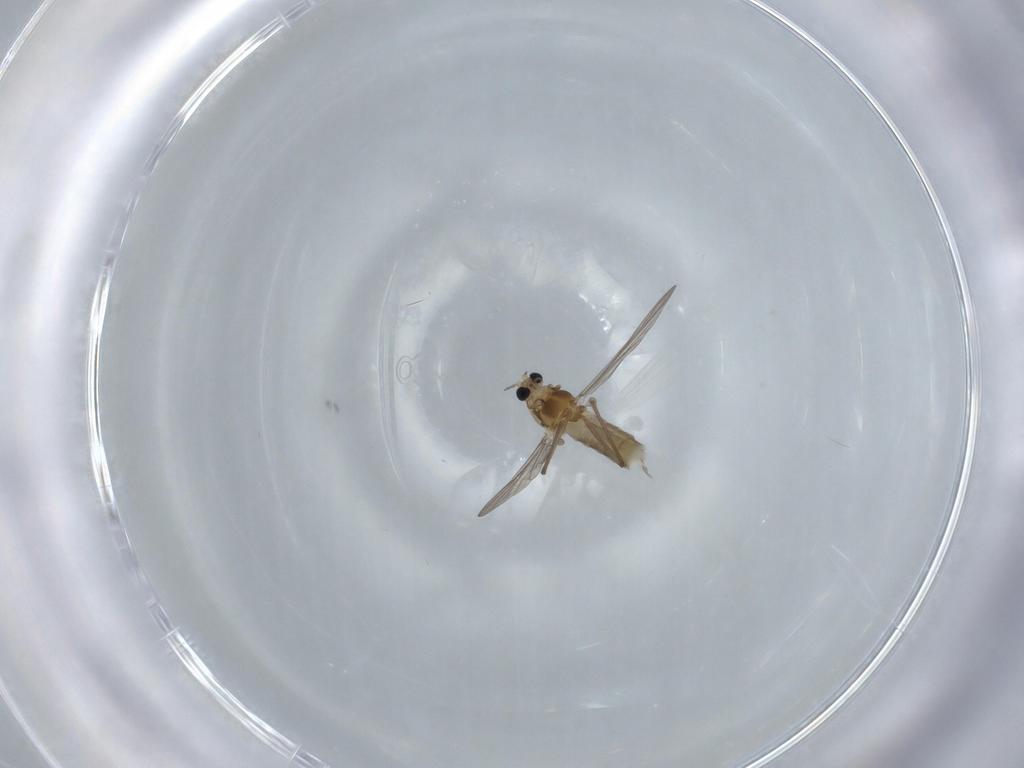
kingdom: Animalia
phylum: Arthropoda
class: Insecta
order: Diptera
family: Chironomidae
